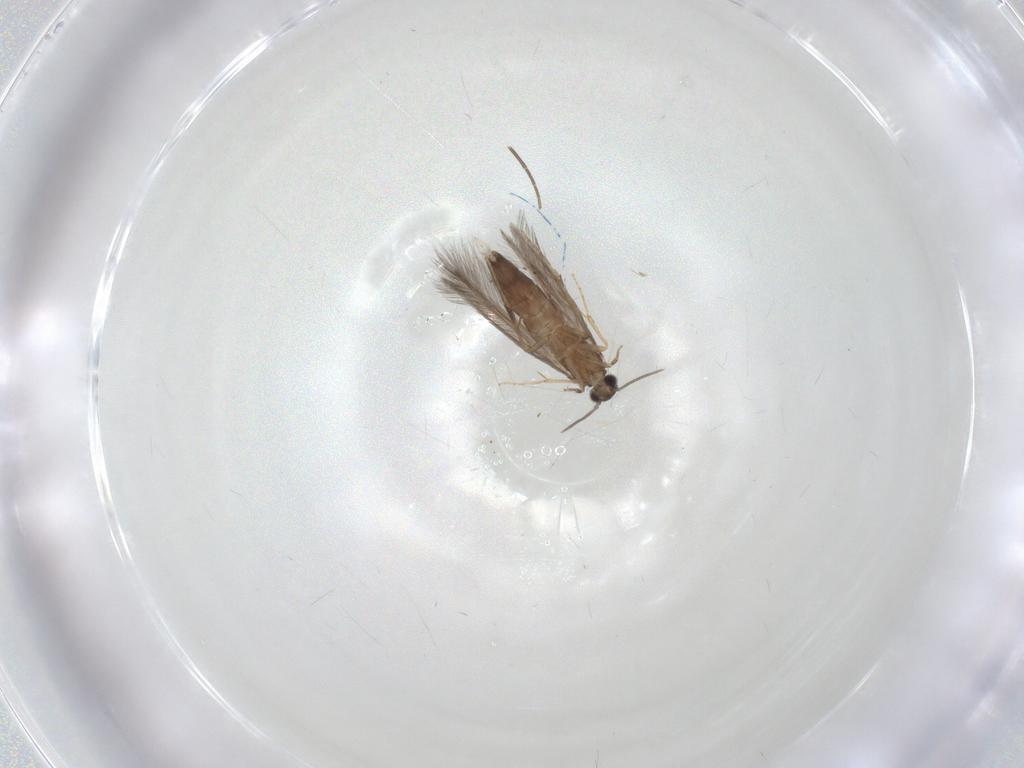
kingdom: Animalia
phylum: Arthropoda
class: Insecta
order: Trichoptera
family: Hydroptilidae
